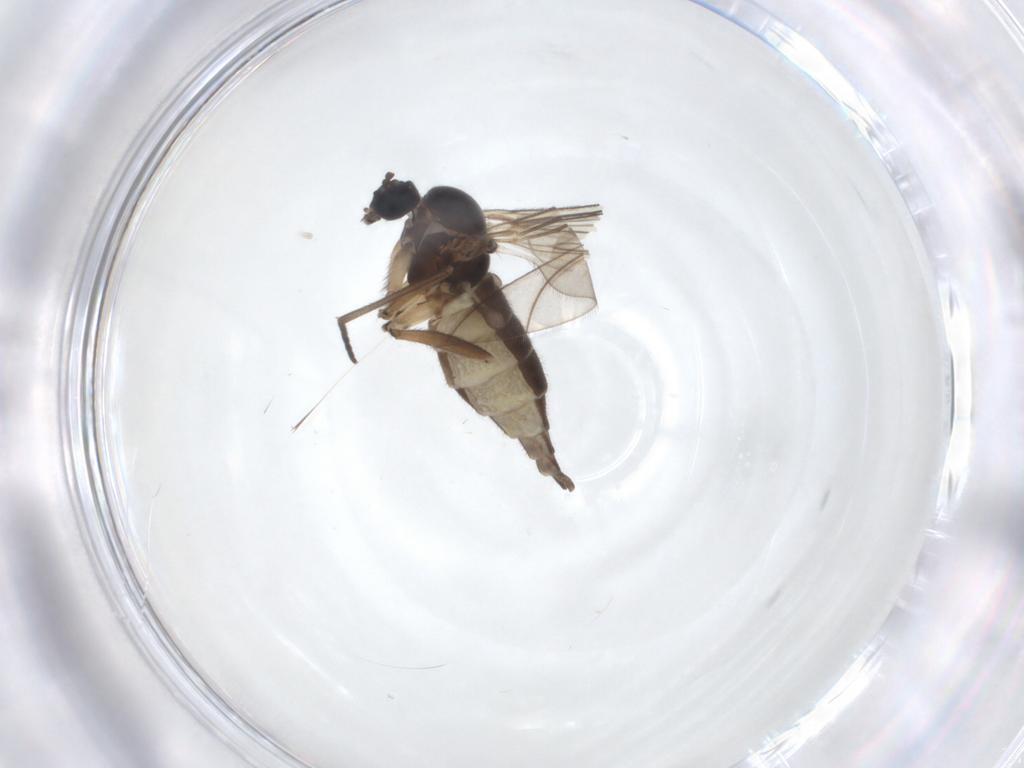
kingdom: Animalia
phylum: Arthropoda
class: Insecta
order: Diptera
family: Sciaridae
